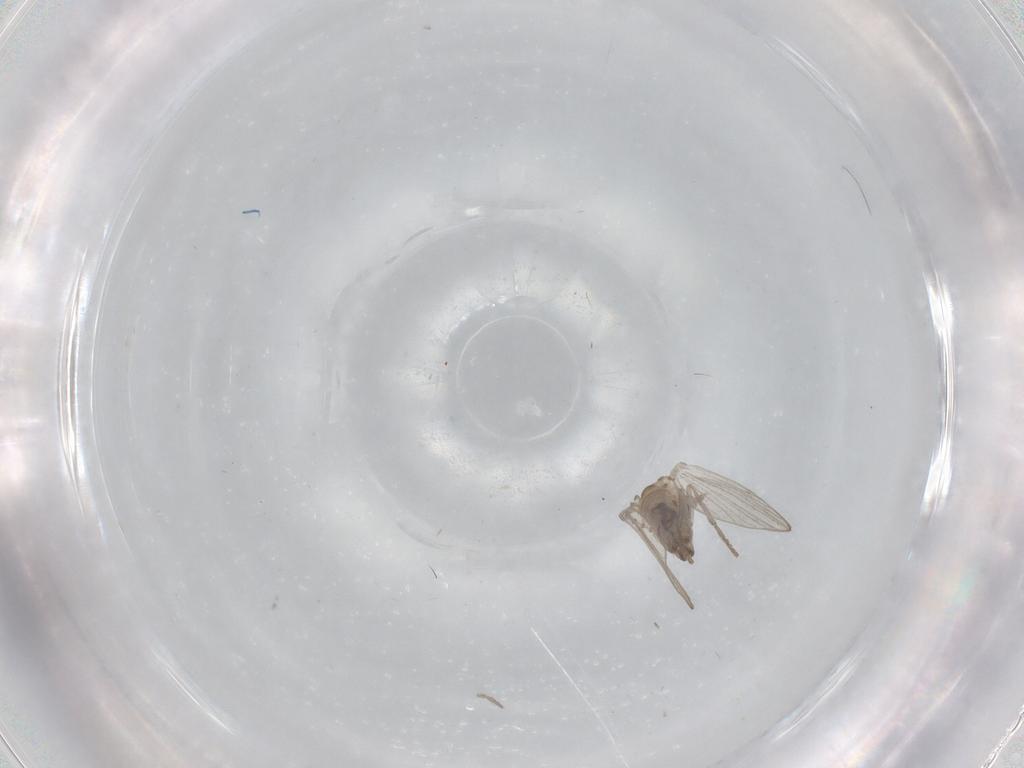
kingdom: Animalia
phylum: Arthropoda
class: Insecta
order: Diptera
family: Psychodidae
